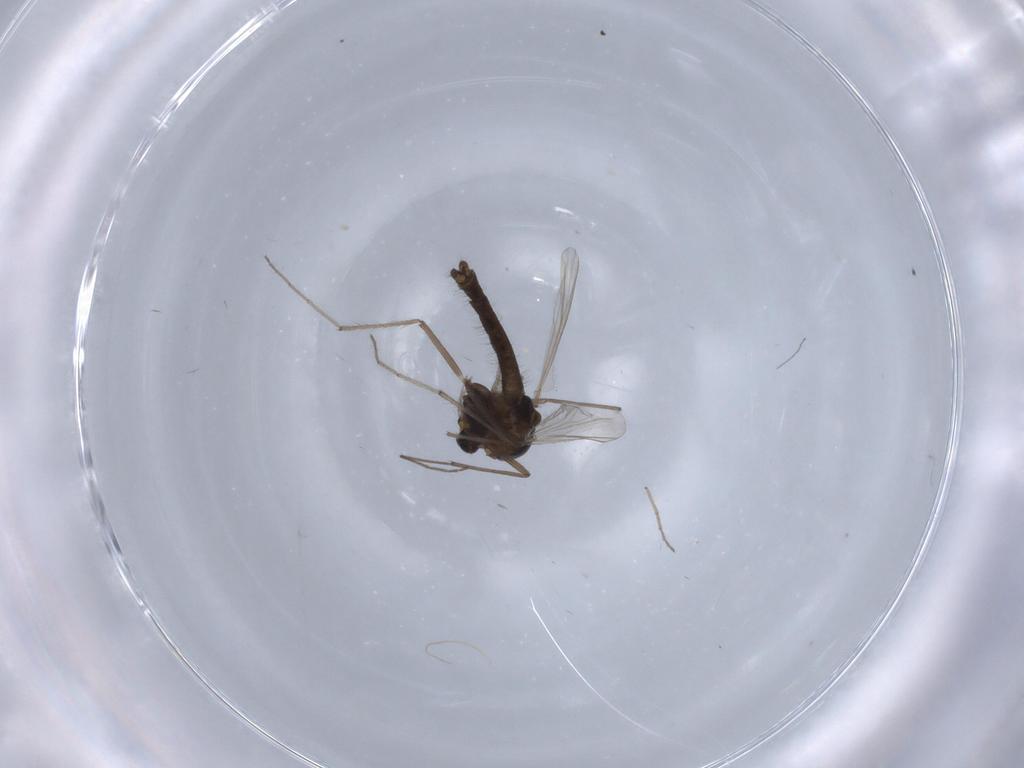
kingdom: Animalia
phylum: Arthropoda
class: Insecta
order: Diptera
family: Chironomidae
